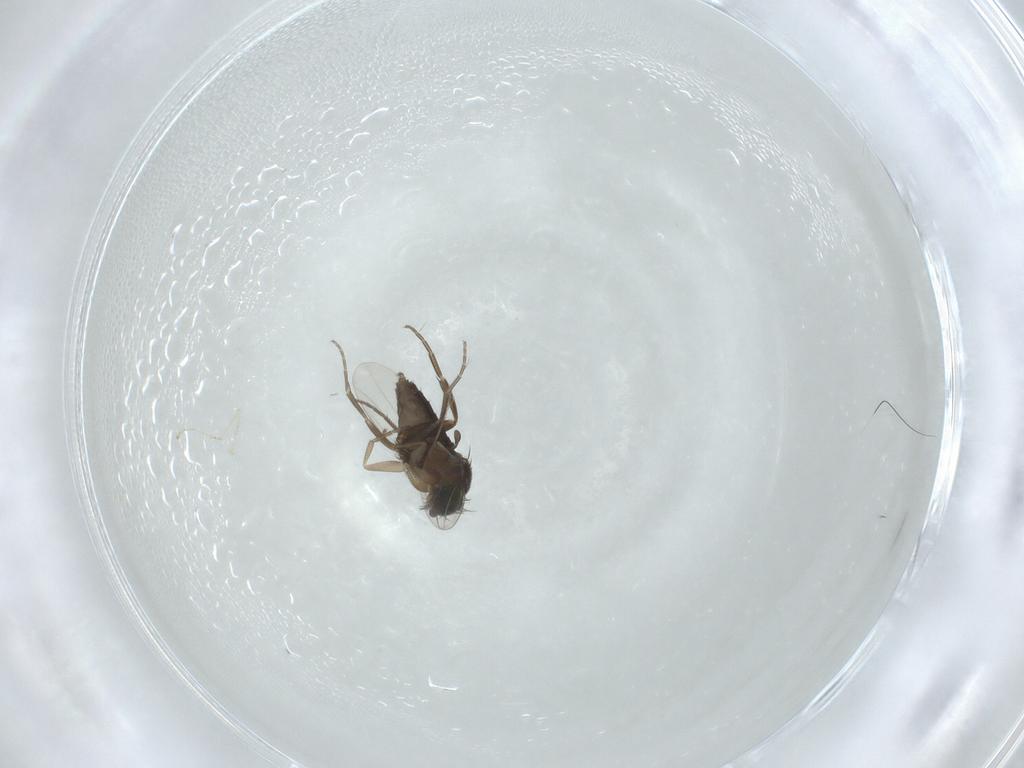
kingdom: Animalia
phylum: Arthropoda
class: Insecta
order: Diptera
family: Phoridae
